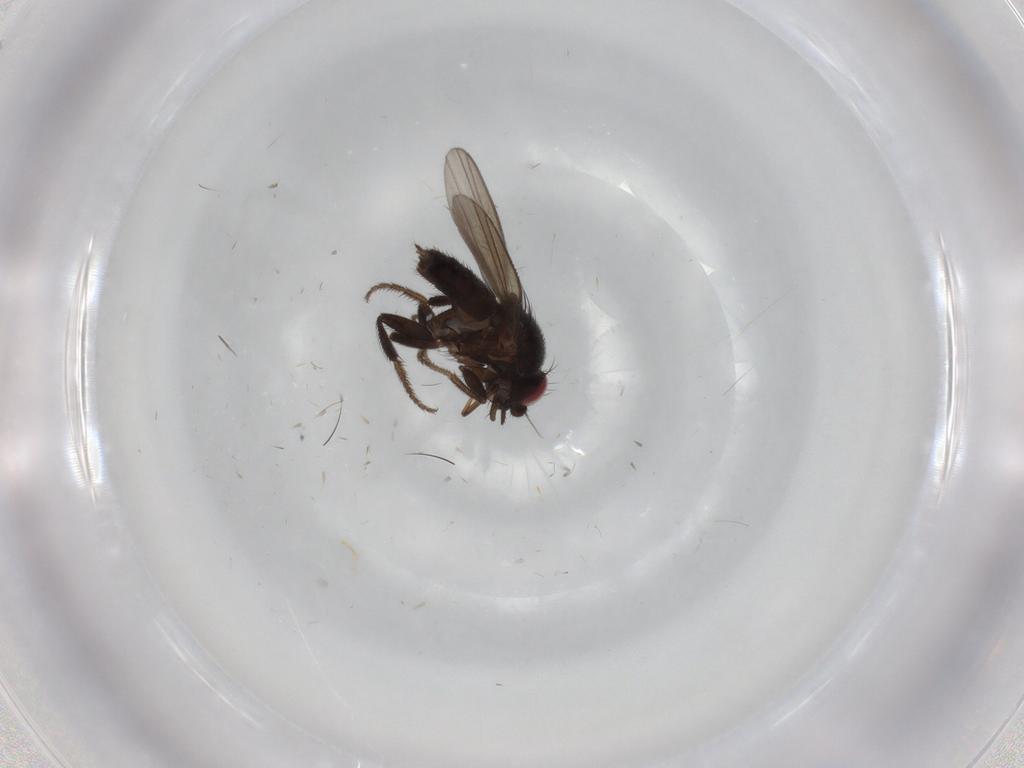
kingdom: Animalia
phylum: Arthropoda
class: Insecta
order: Diptera
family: Milichiidae
